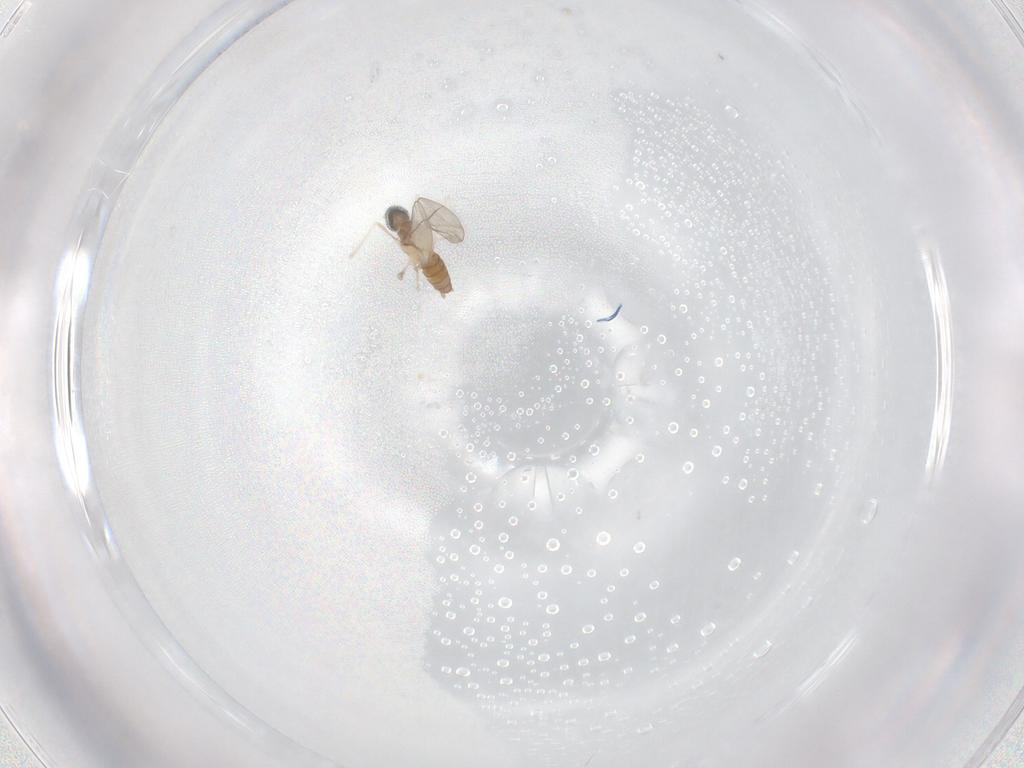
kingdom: Animalia
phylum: Arthropoda
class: Insecta
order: Diptera
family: Cecidomyiidae
